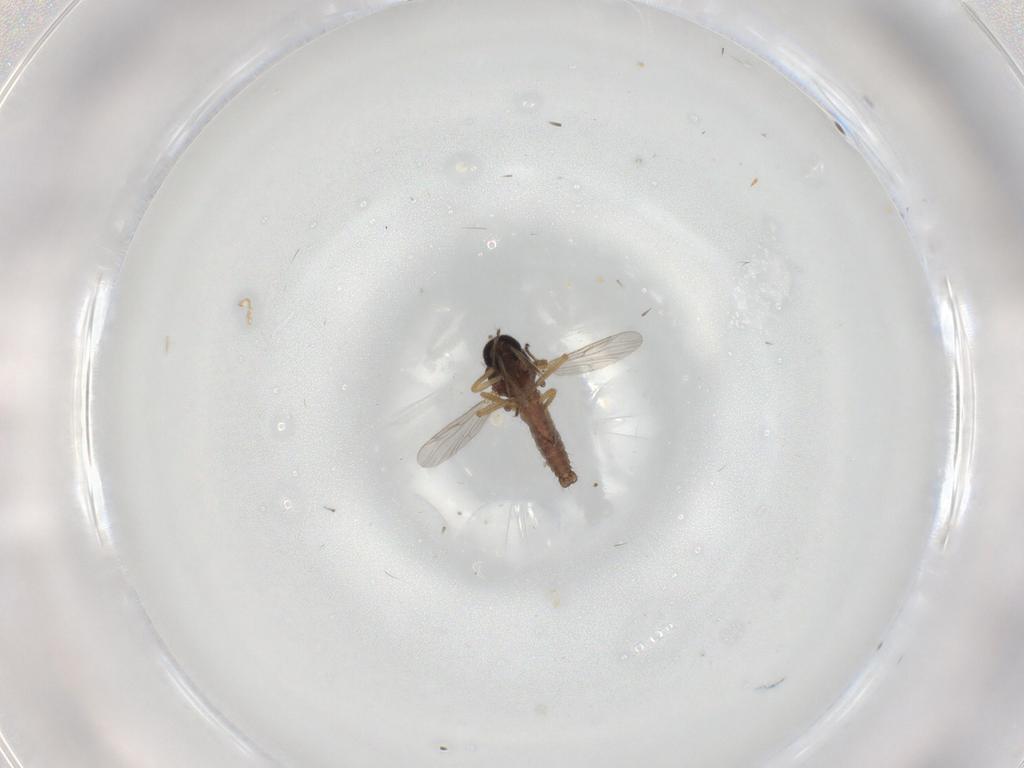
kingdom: Animalia
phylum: Arthropoda
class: Insecta
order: Diptera
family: Ceratopogonidae
